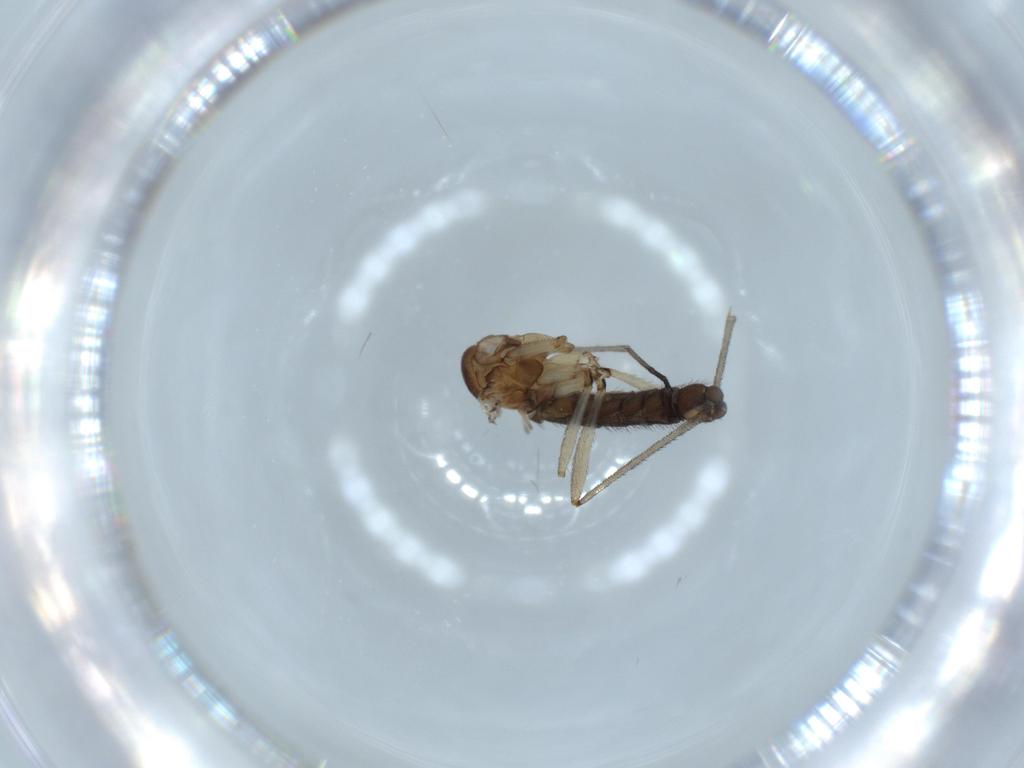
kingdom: Animalia
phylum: Arthropoda
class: Insecta
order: Diptera
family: Sciaridae
